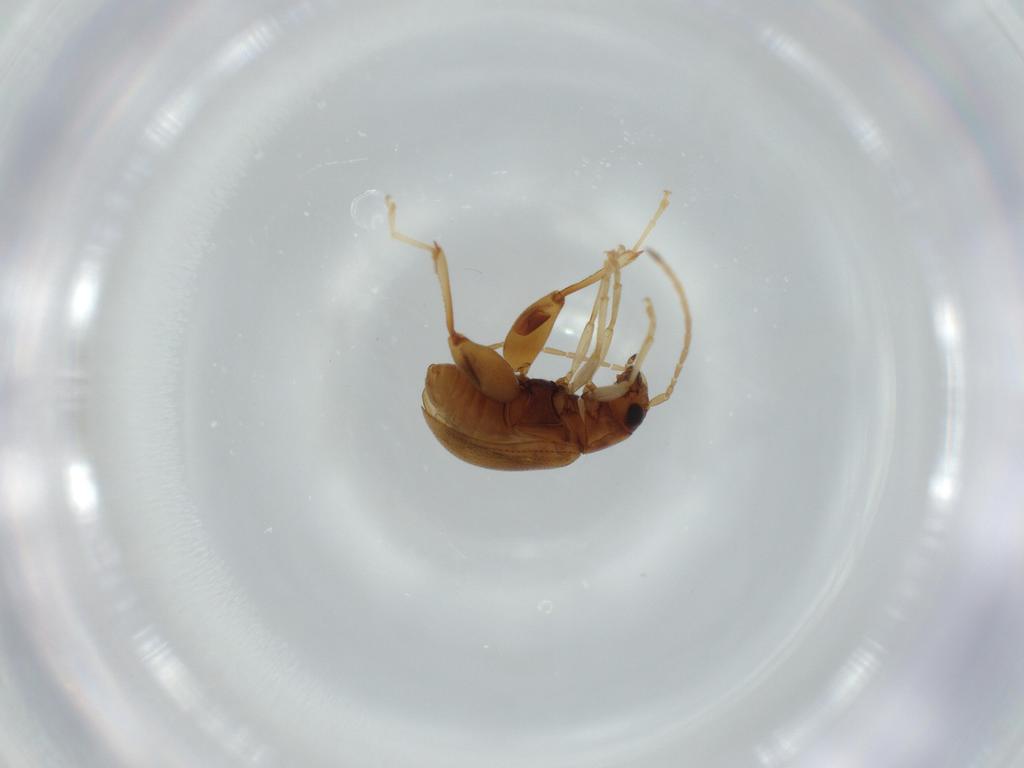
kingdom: Animalia
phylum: Arthropoda
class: Insecta
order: Coleoptera
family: Chrysomelidae
